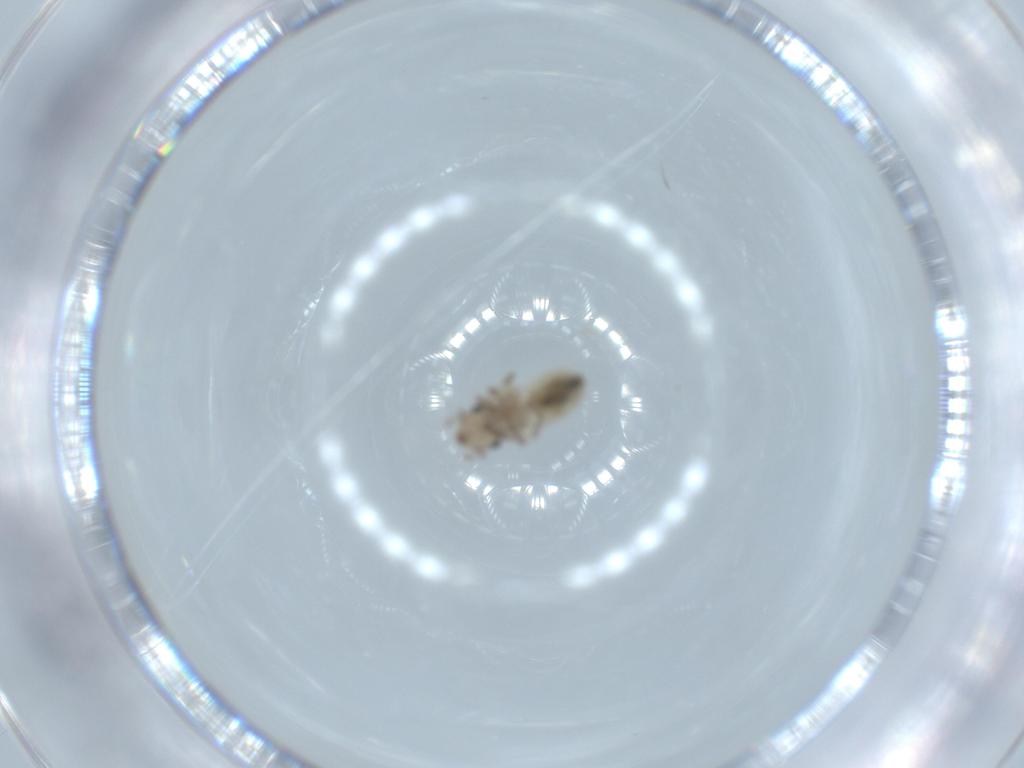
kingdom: Animalia
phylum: Arthropoda
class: Insecta
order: Psocodea
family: Lepidopsocidae
